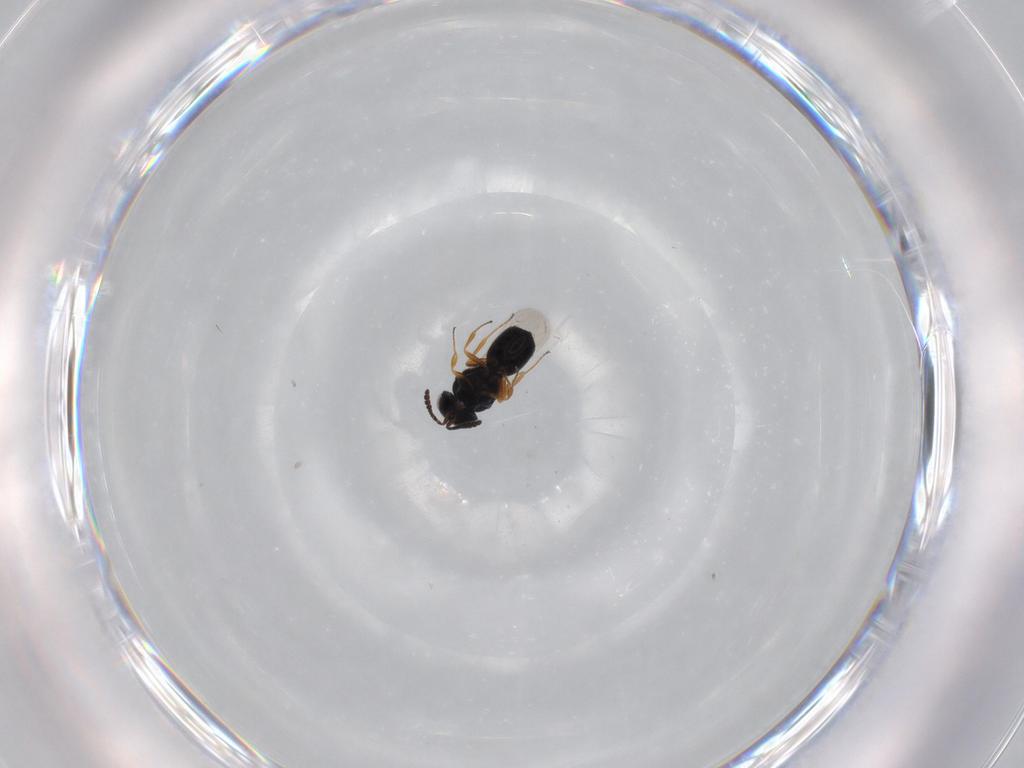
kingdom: Animalia
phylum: Arthropoda
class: Insecta
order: Hymenoptera
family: Scelionidae
